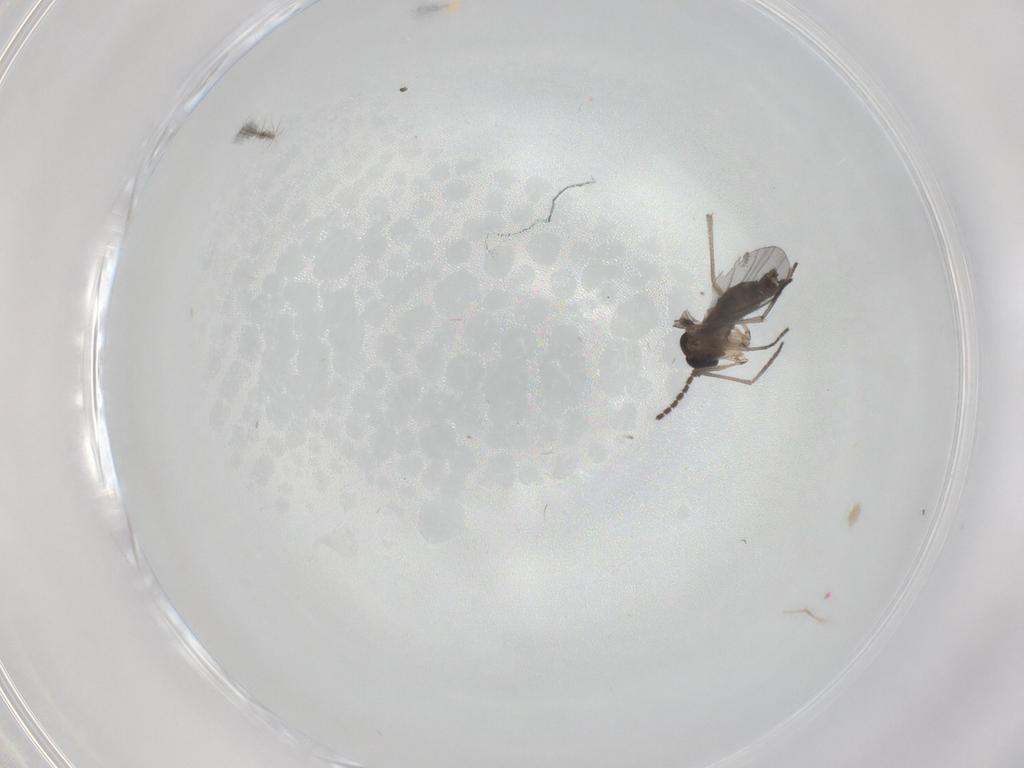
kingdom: Animalia
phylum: Arthropoda
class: Insecta
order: Diptera
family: Sciaridae
